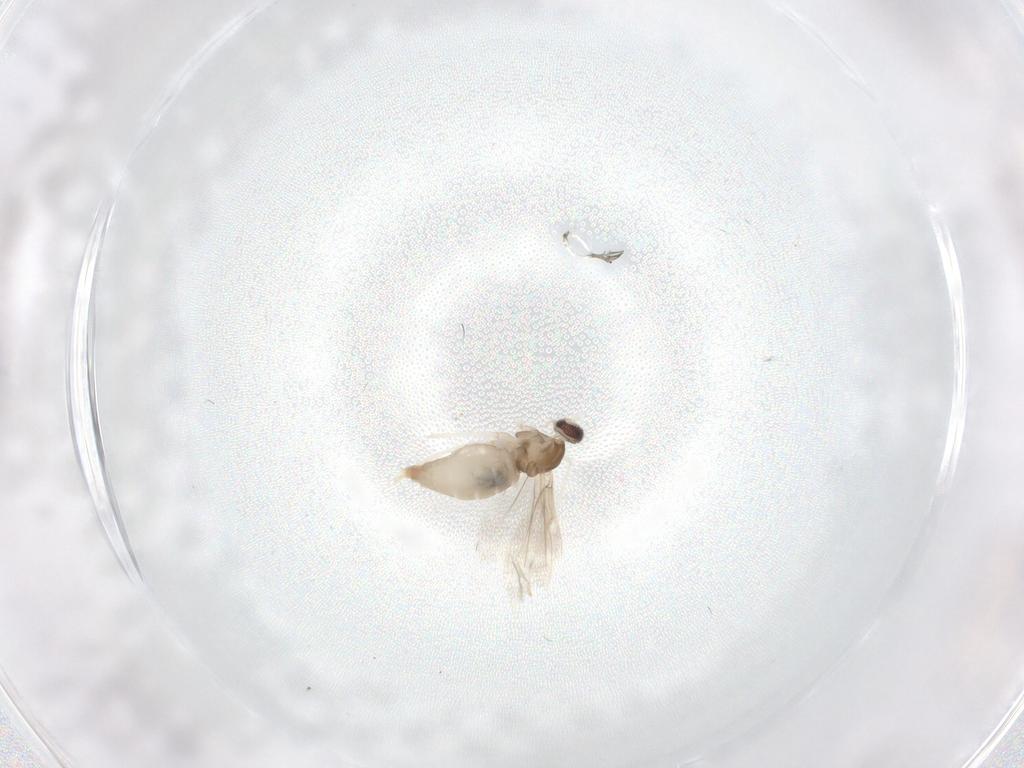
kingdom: Animalia
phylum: Arthropoda
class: Insecta
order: Diptera
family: Cecidomyiidae
